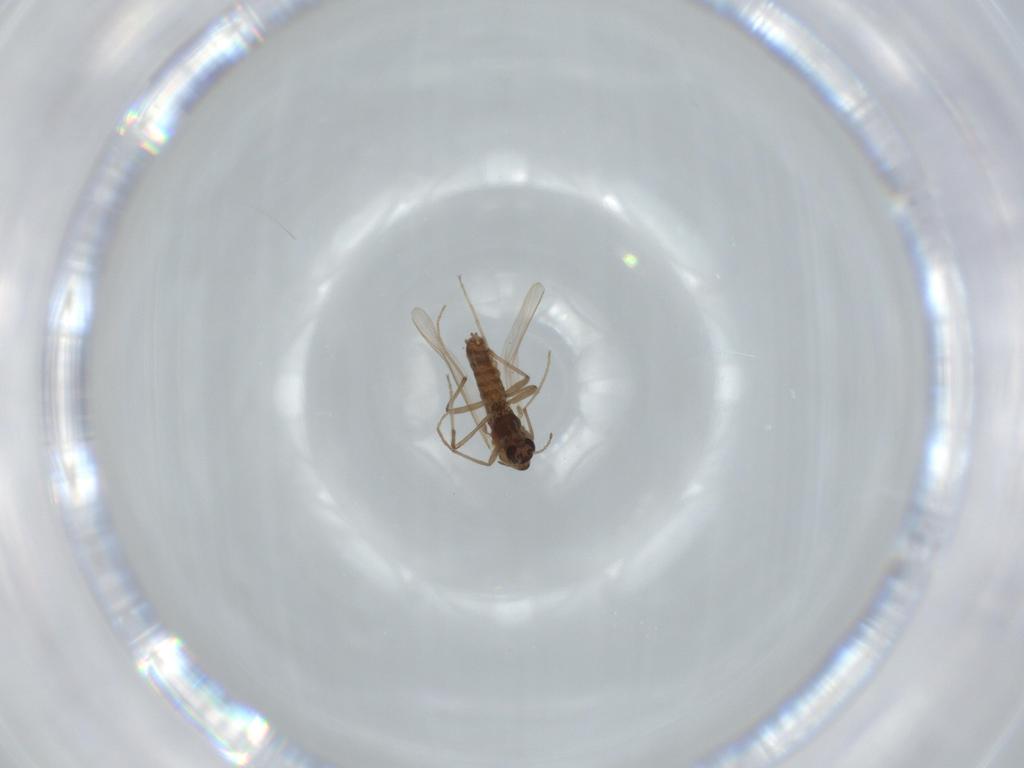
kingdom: Animalia
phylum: Arthropoda
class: Insecta
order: Diptera
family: Chironomidae
